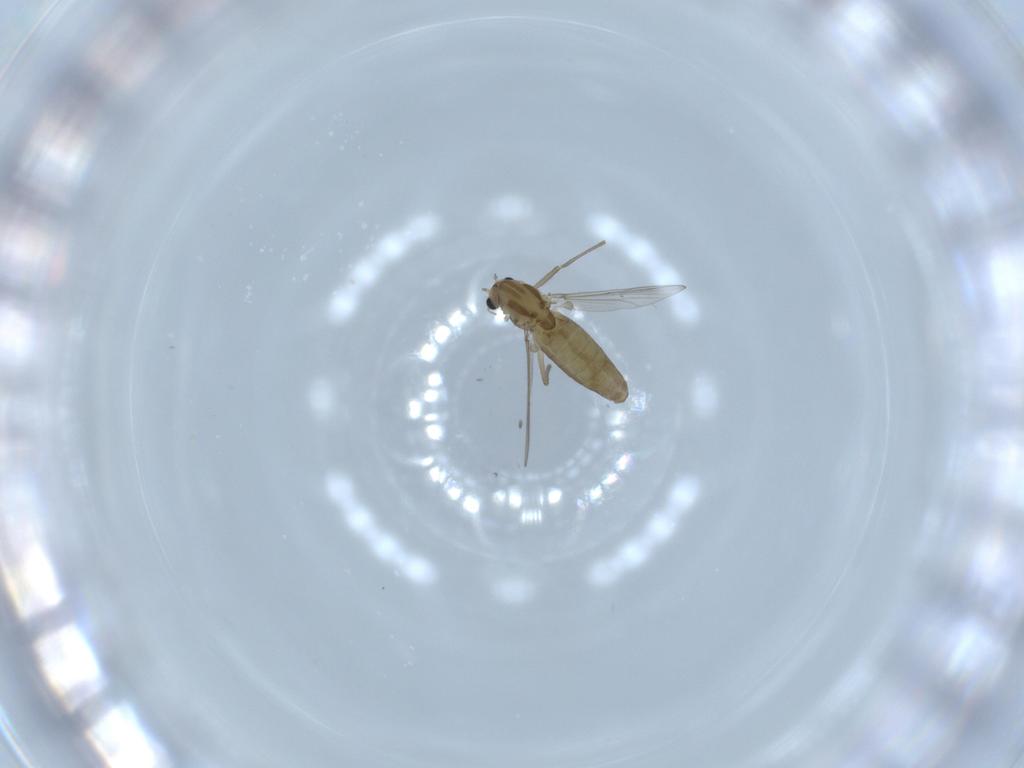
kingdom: Animalia
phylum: Arthropoda
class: Insecta
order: Diptera
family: Chironomidae
